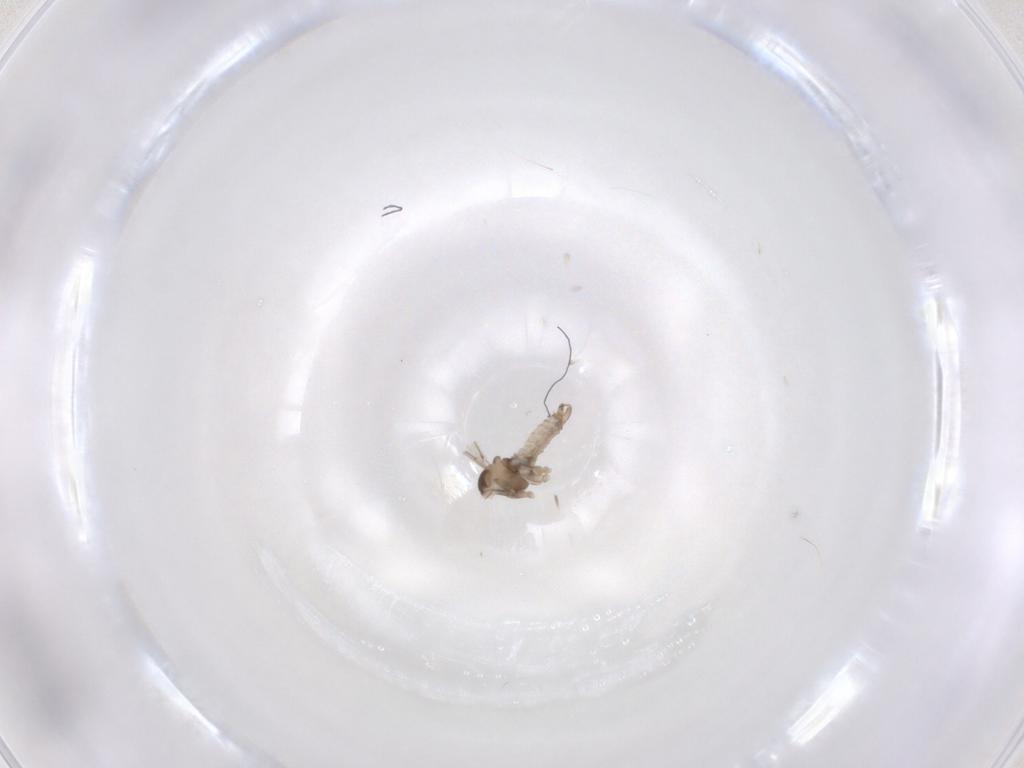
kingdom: Animalia
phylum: Arthropoda
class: Insecta
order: Diptera
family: Cecidomyiidae
